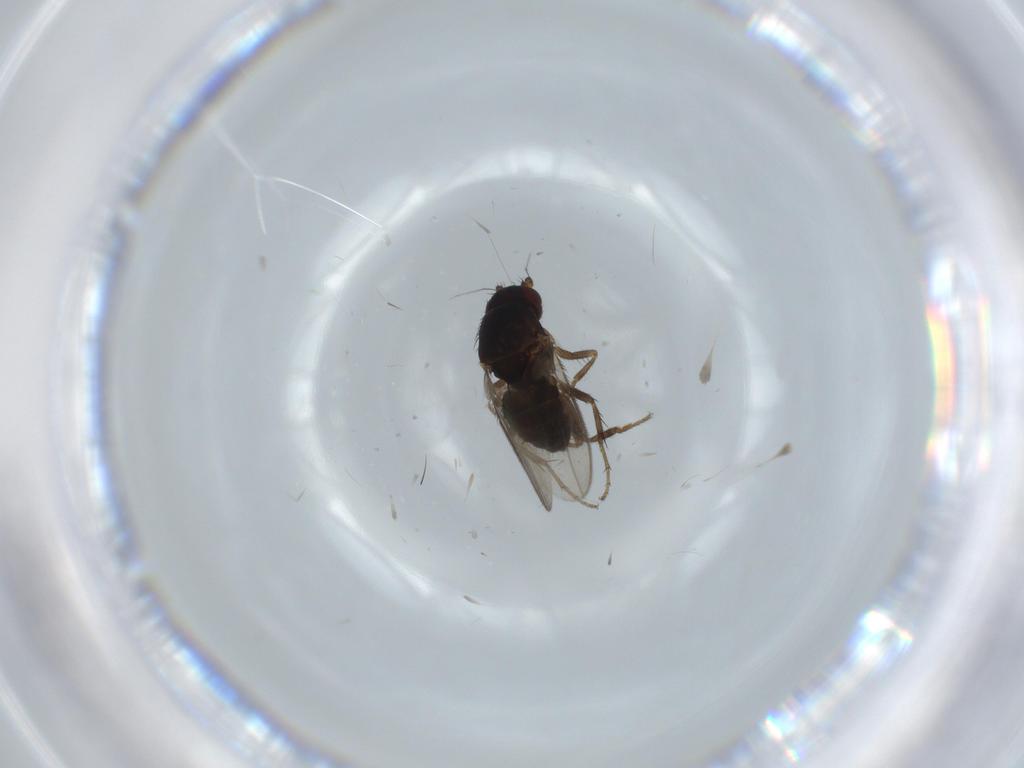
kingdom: Animalia
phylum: Arthropoda
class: Insecta
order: Diptera
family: Sphaeroceridae
